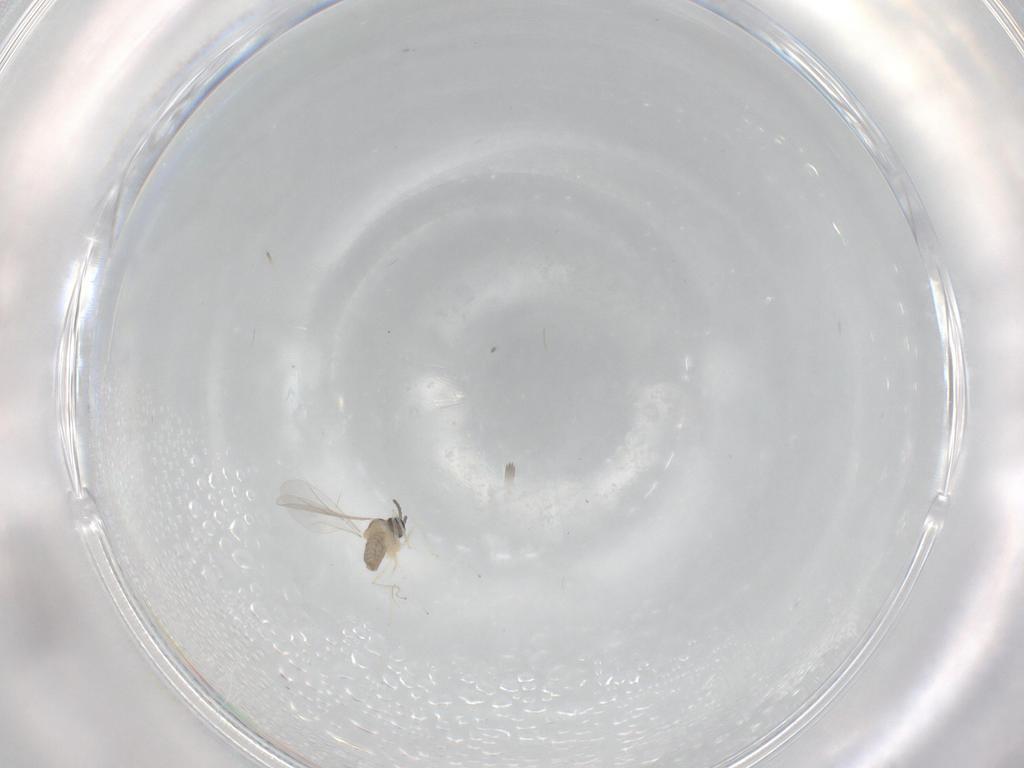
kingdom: Animalia
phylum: Arthropoda
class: Insecta
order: Diptera
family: Cecidomyiidae
